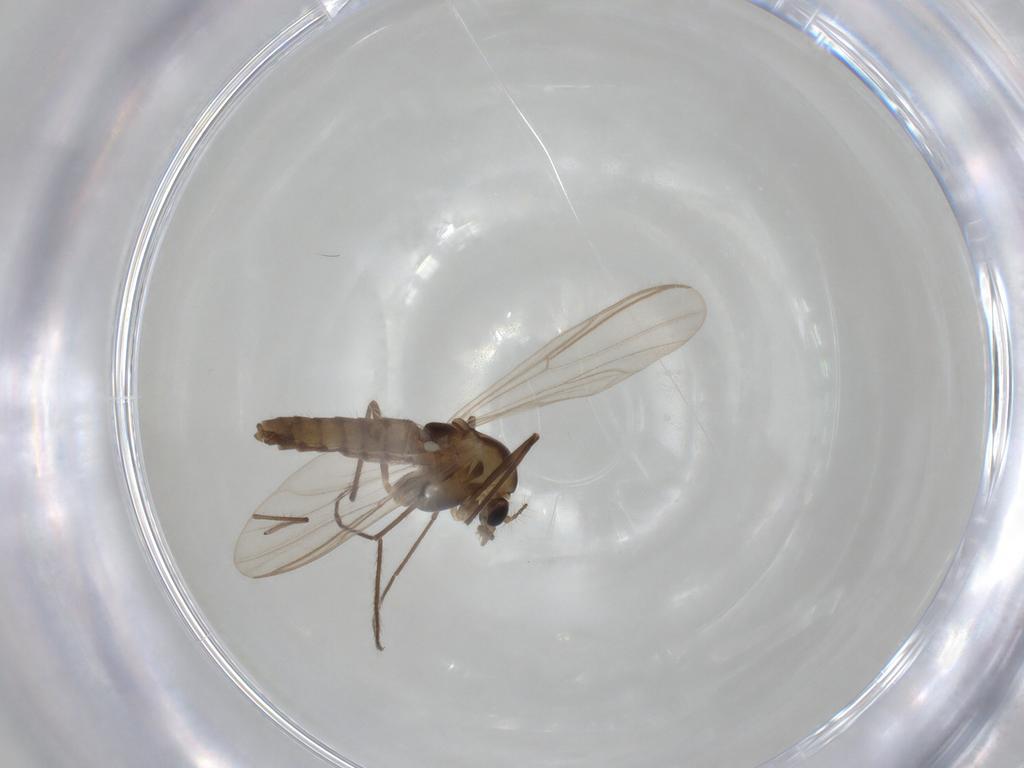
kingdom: Animalia
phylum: Arthropoda
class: Insecta
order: Diptera
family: Chironomidae
